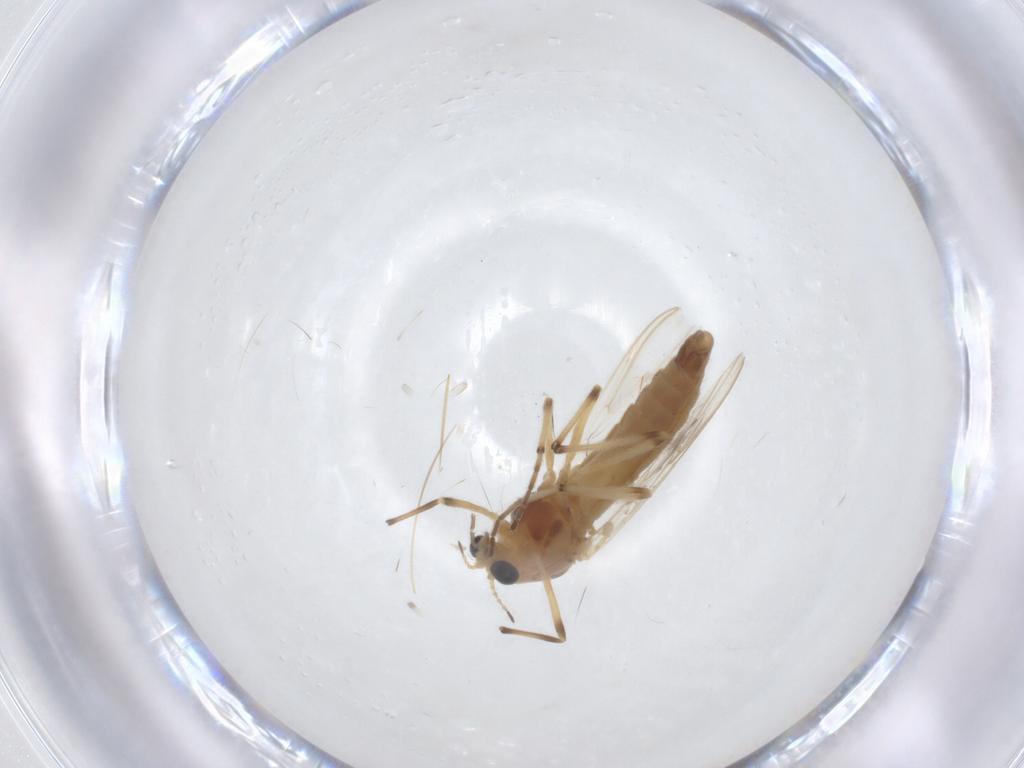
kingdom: Animalia
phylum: Arthropoda
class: Insecta
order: Diptera
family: Chironomidae
